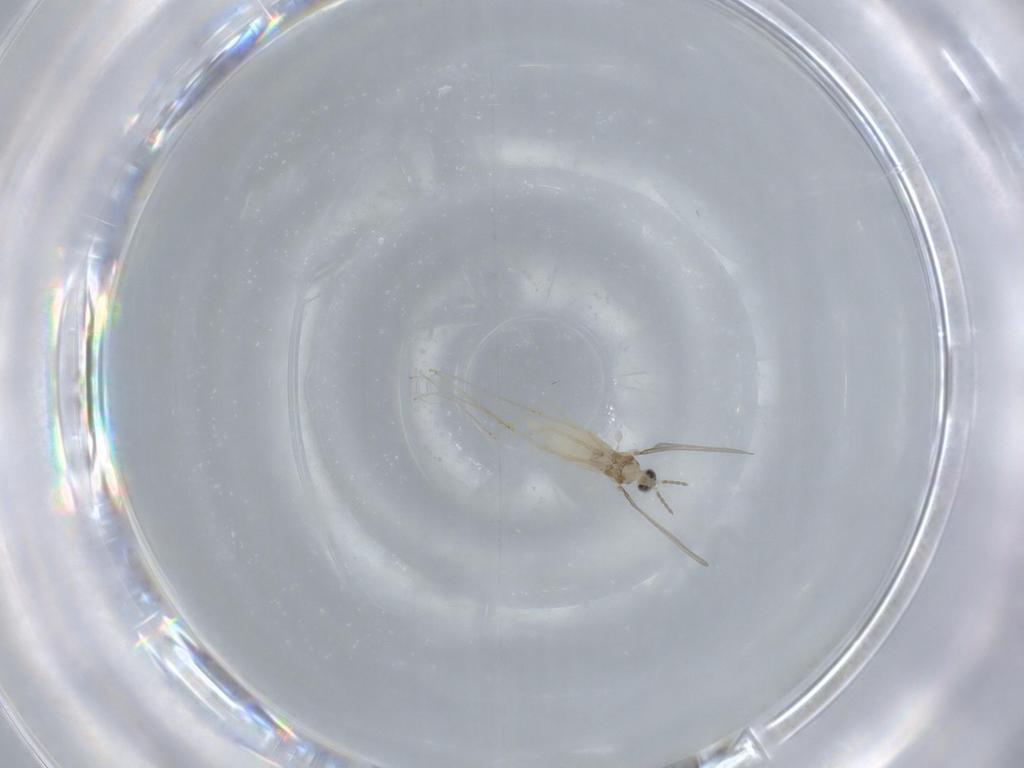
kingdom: Animalia
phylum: Arthropoda
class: Insecta
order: Diptera
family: Cecidomyiidae
